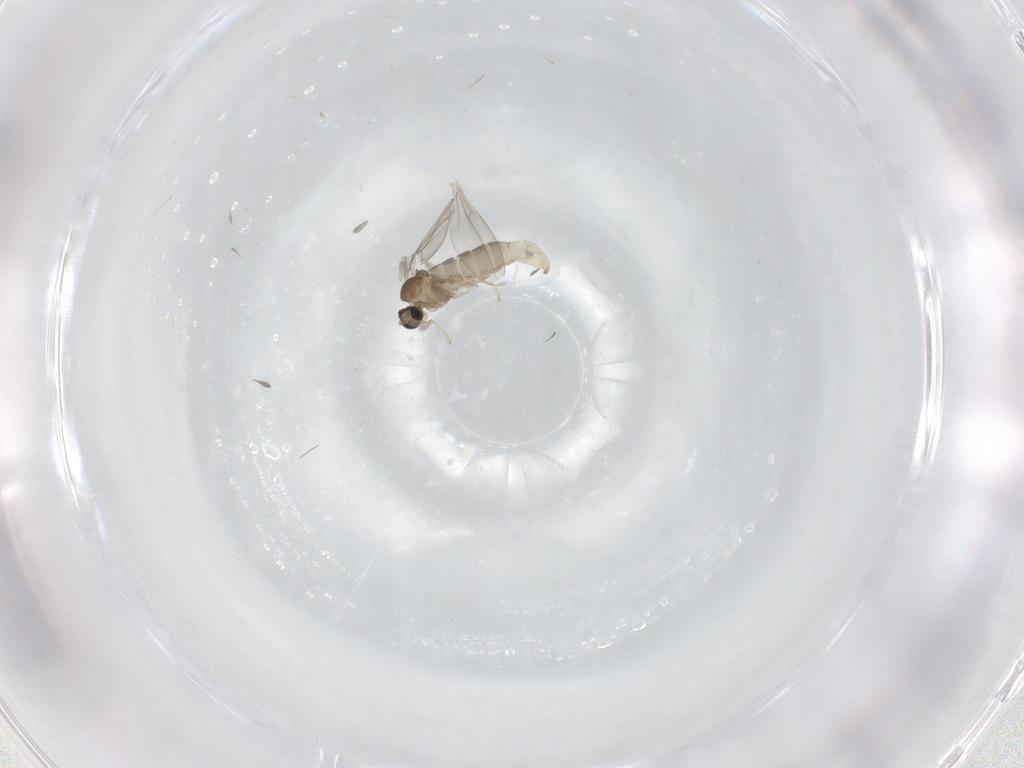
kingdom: Animalia
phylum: Arthropoda
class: Insecta
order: Diptera
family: Cecidomyiidae
